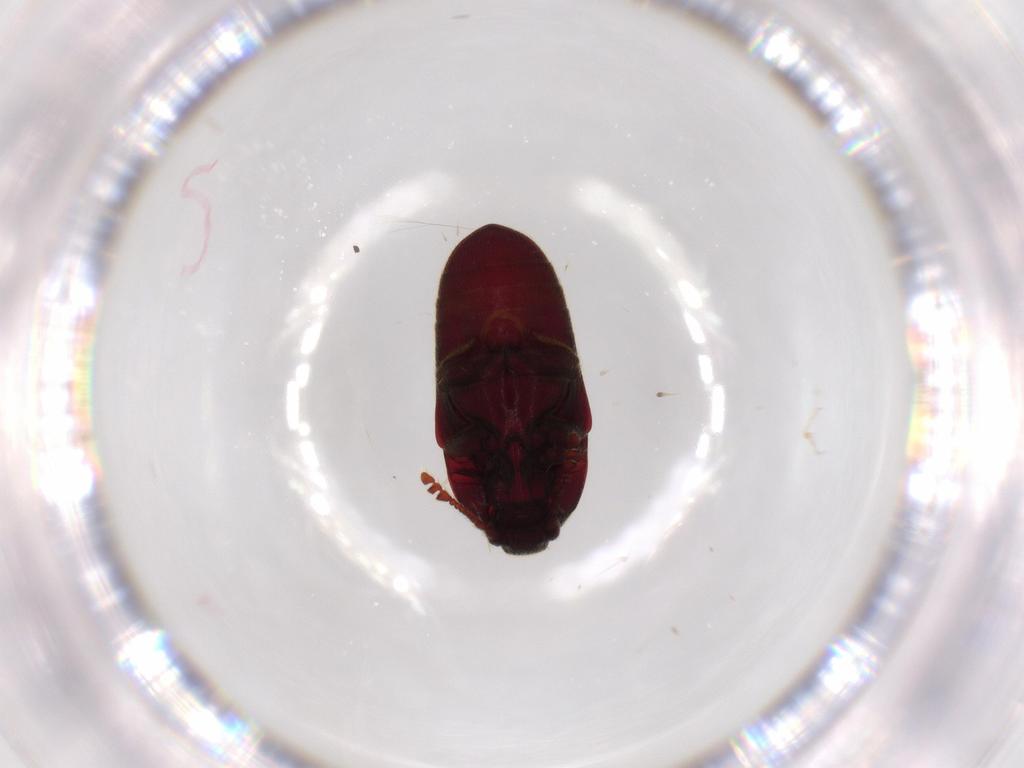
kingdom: Animalia
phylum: Arthropoda
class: Insecta
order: Coleoptera
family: Throscidae
